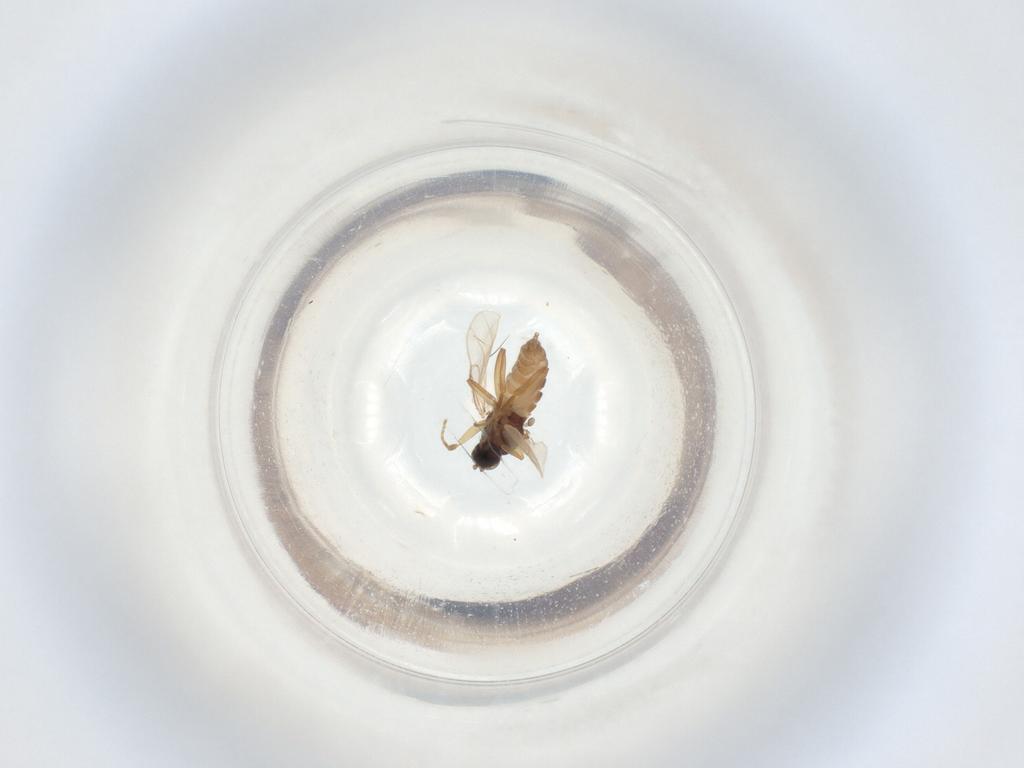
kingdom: Animalia
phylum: Arthropoda
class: Insecta
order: Diptera
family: Hybotidae
